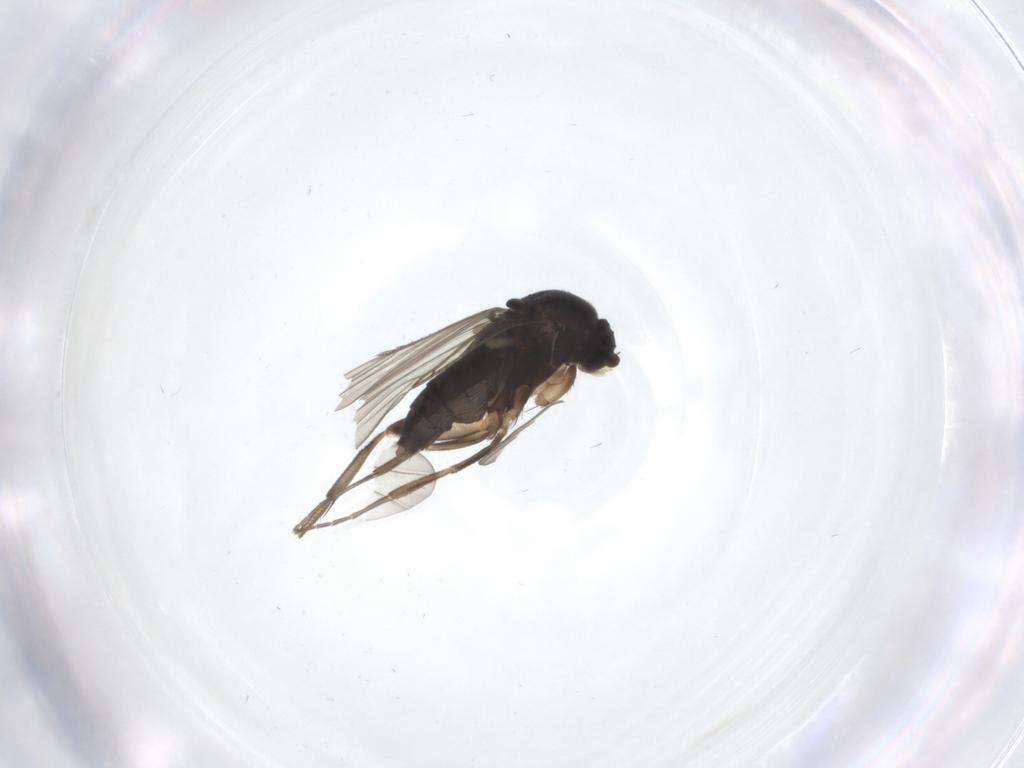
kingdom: Animalia
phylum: Arthropoda
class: Insecta
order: Diptera
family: Phoridae
